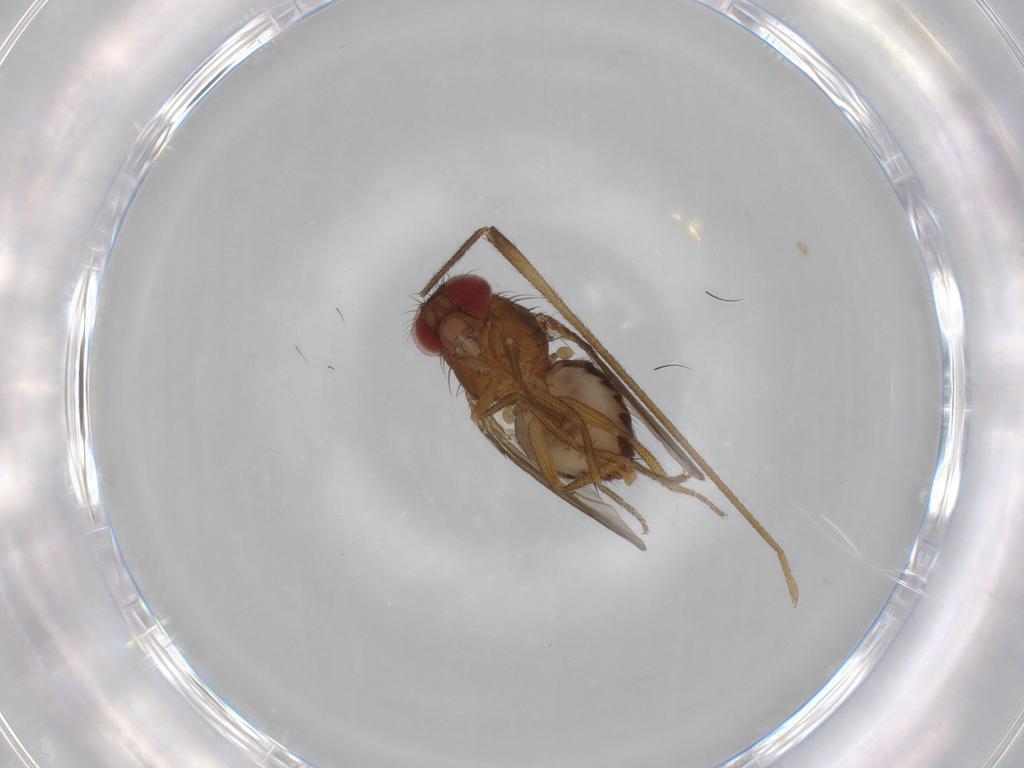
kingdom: Animalia
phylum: Arthropoda
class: Insecta
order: Diptera
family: Drosophilidae
